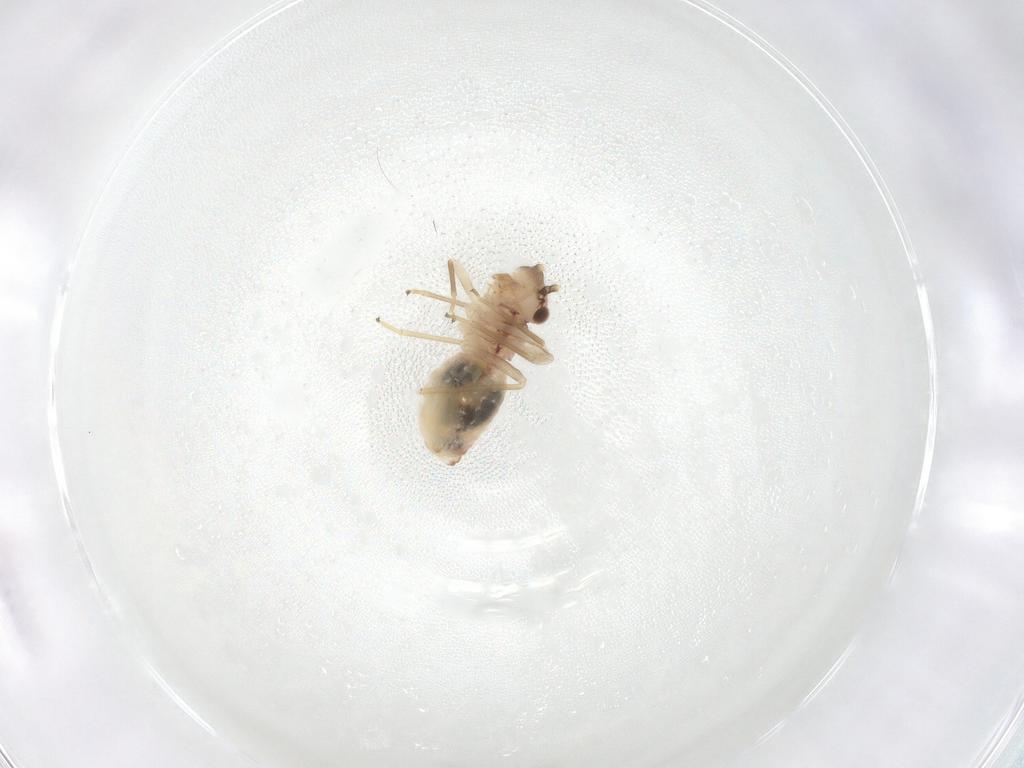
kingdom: Animalia
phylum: Arthropoda
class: Insecta
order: Psocodea
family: Caeciliusidae
